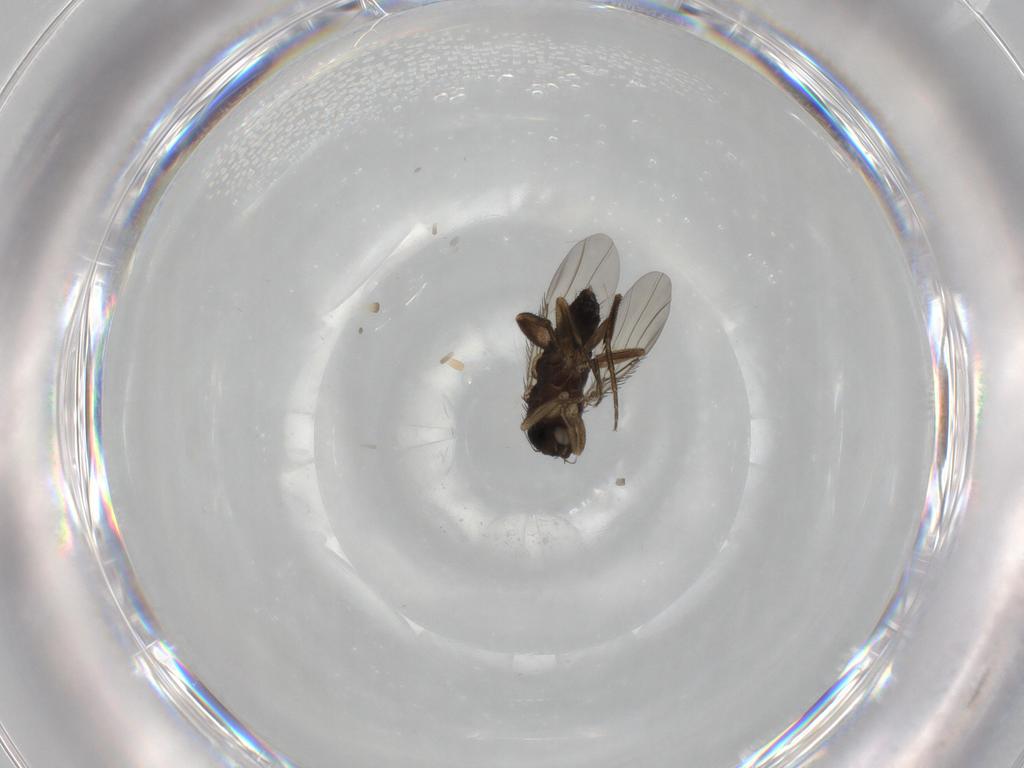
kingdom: Animalia
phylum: Arthropoda
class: Insecta
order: Diptera
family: Phoridae
